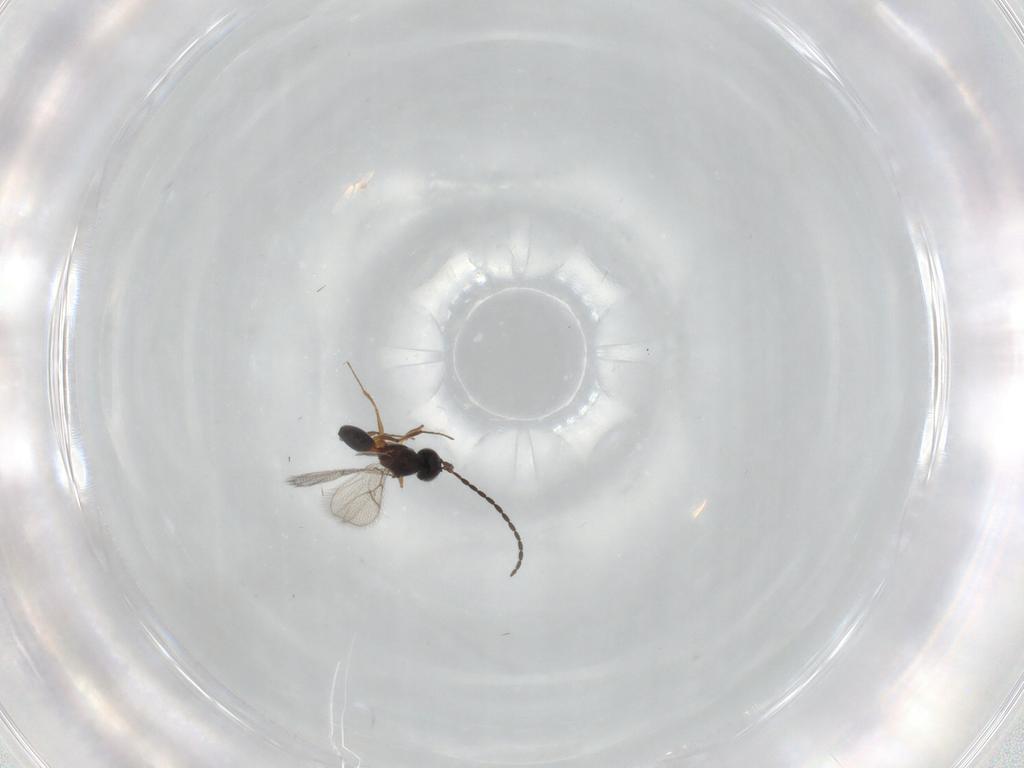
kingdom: Animalia
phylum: Arthropoda
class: Insecta
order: Hymenoptera
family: Figitidae
